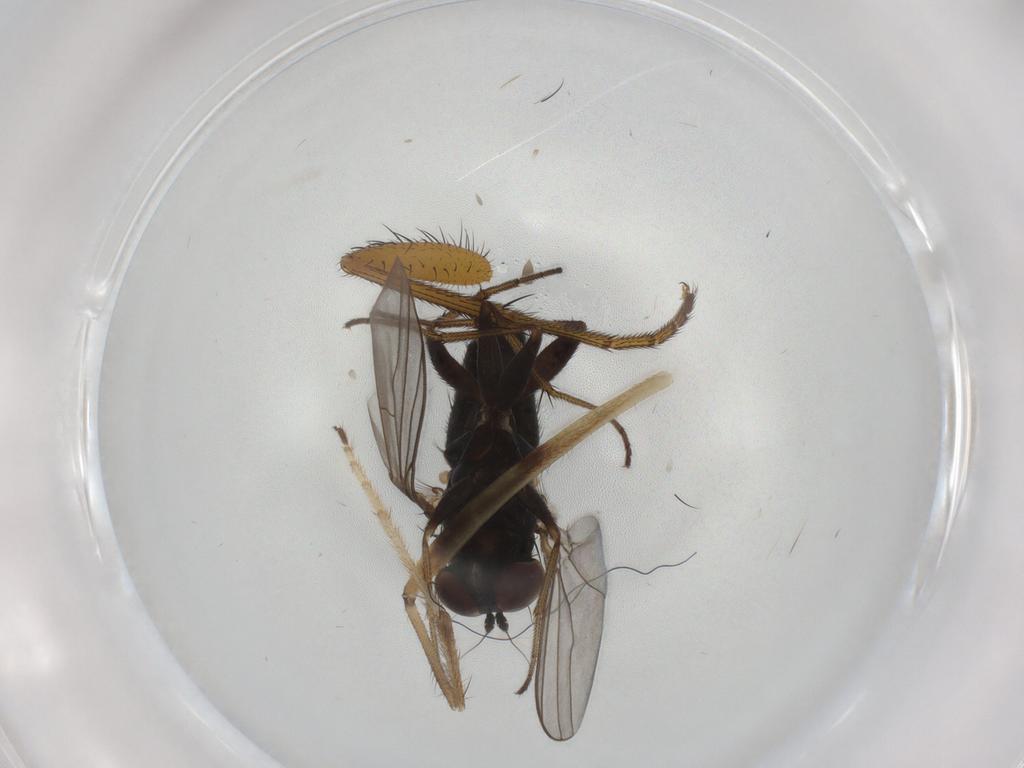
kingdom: Animalia
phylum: Arthropoda
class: Insecta
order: Diptera
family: Dolichopodidae
